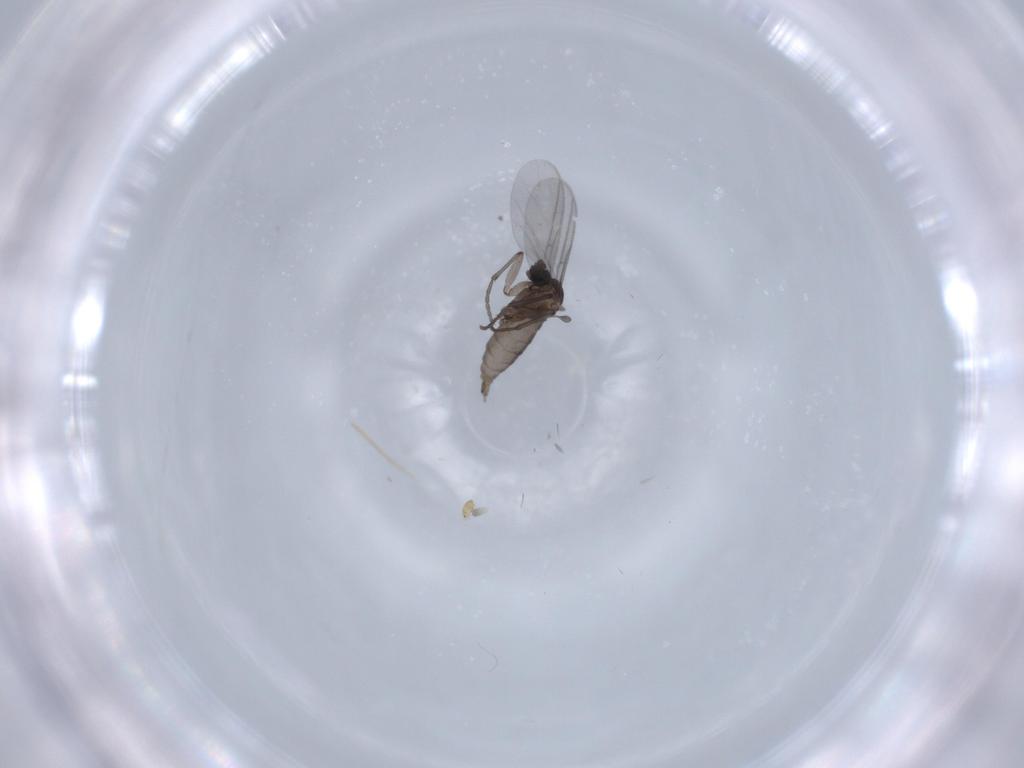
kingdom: Animalia
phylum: Arthropoda
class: Insecta
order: Diptera
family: Sciaridae
